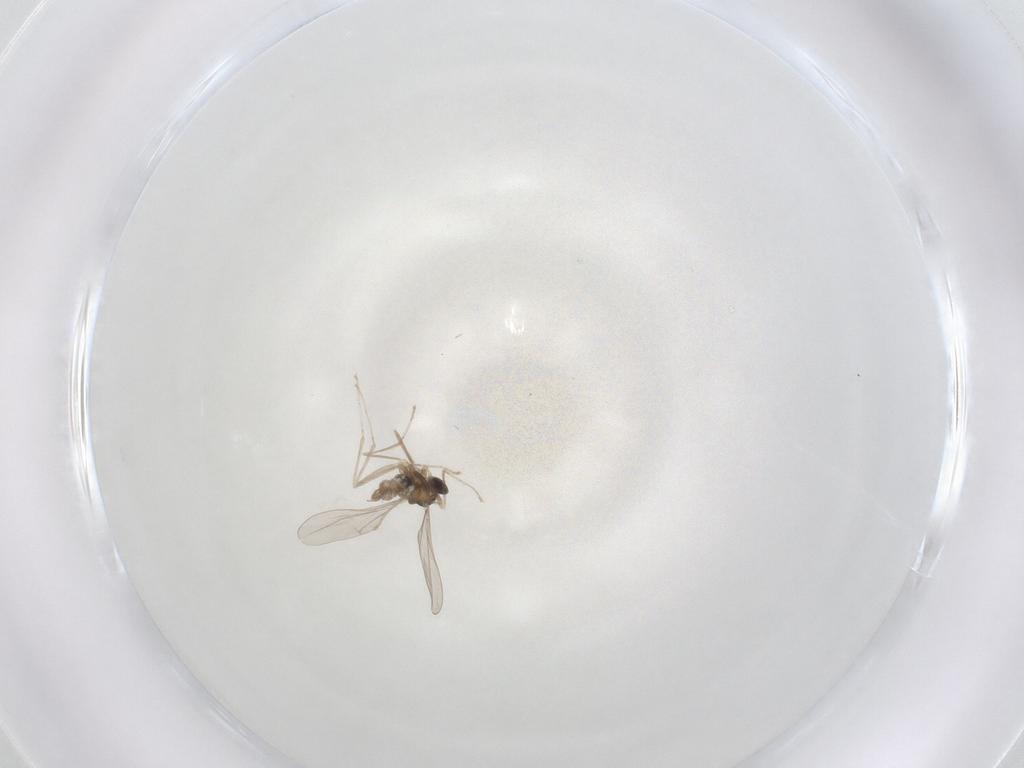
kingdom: Animalia
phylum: Arthropoda
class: Insecta
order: Diptera
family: Cecidomyiidae
